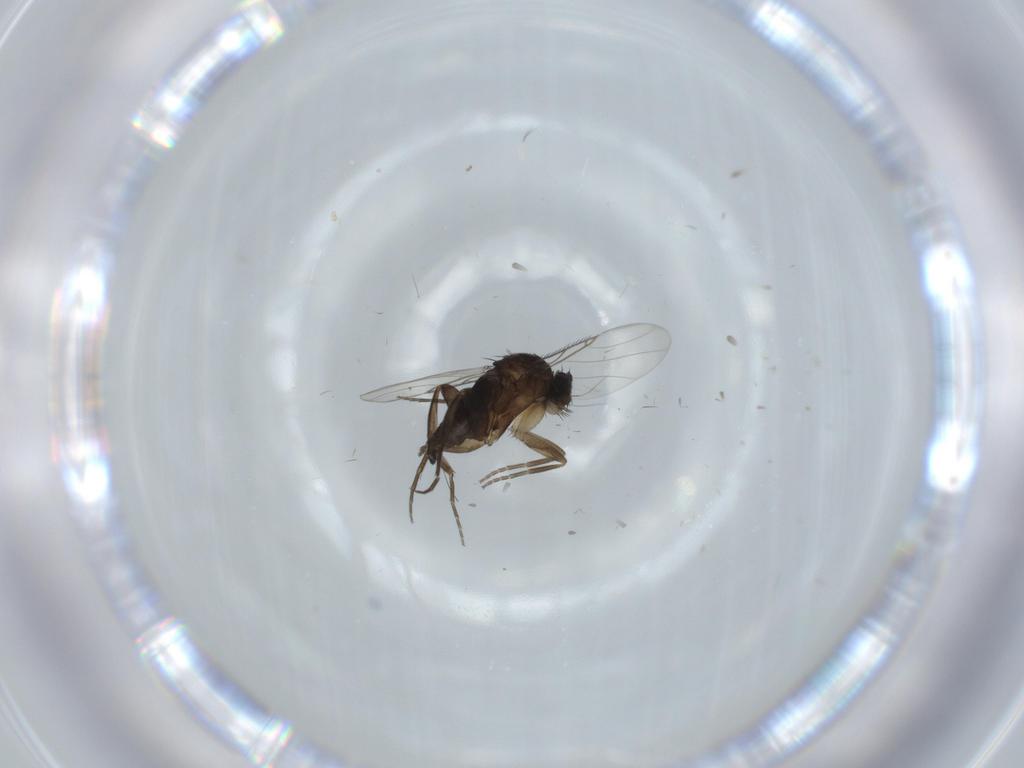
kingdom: Animalia
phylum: Arthropoda
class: Insecta
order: Diptera
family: Phoridae
